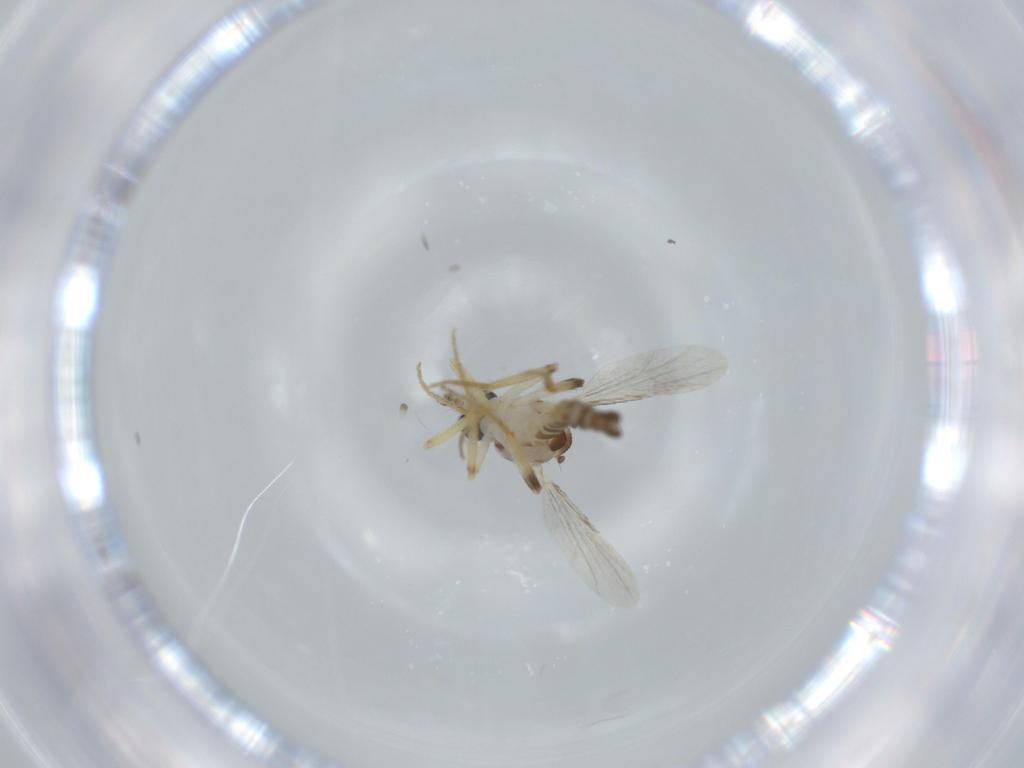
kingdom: Animalia
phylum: Arthropoda
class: Insecta
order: Diptera
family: Ceratopogonidae
